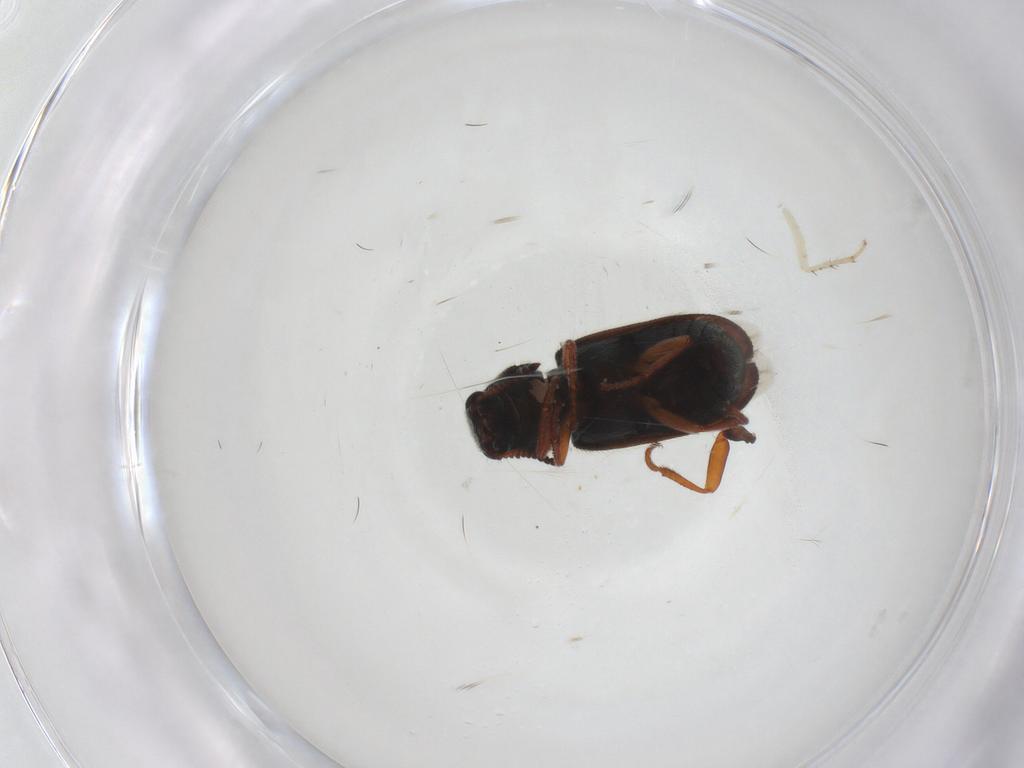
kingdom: Animalia
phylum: Arthropoda
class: Insecta
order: Coleoptera
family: Melyridae
